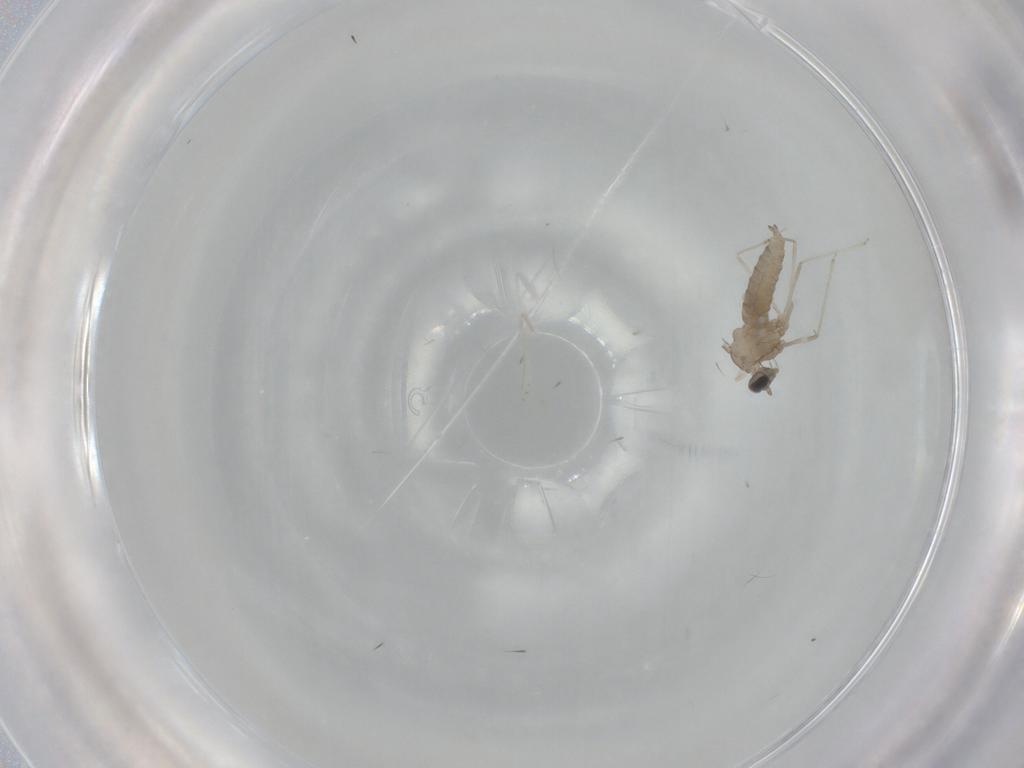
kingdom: Animalia
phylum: Arthropoda
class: Insecta
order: Diptera
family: Cecidomyiidae
